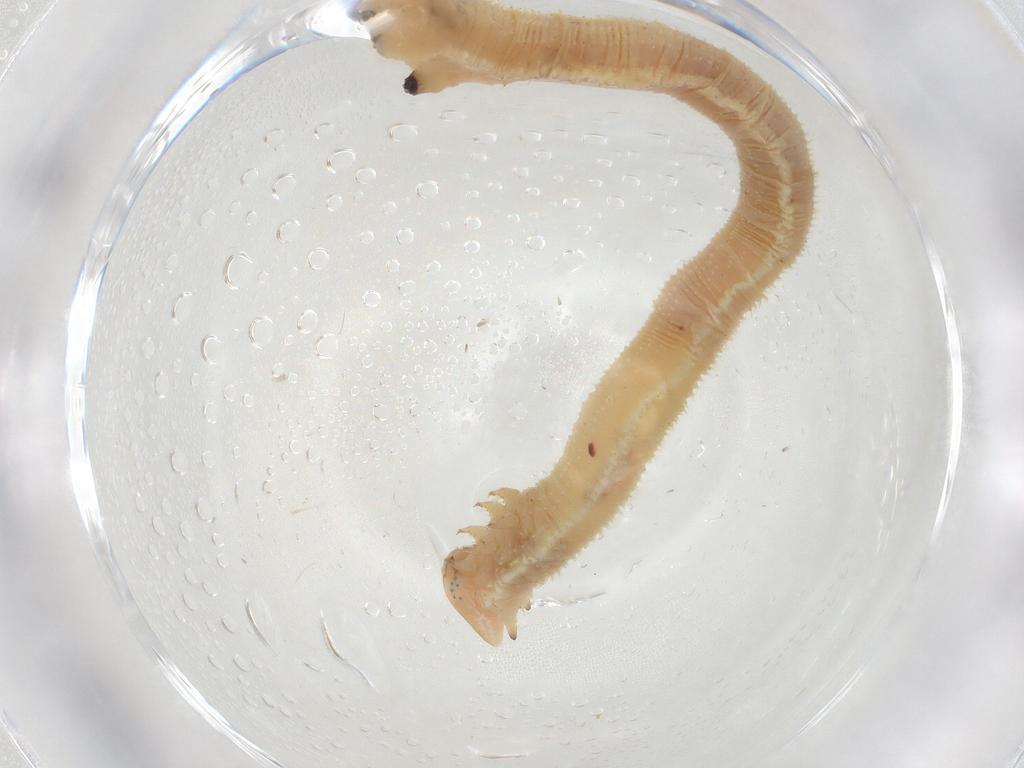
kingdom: Animalia
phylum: Arthropoda
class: Insecta
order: Lepidoptera
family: Geometridae
